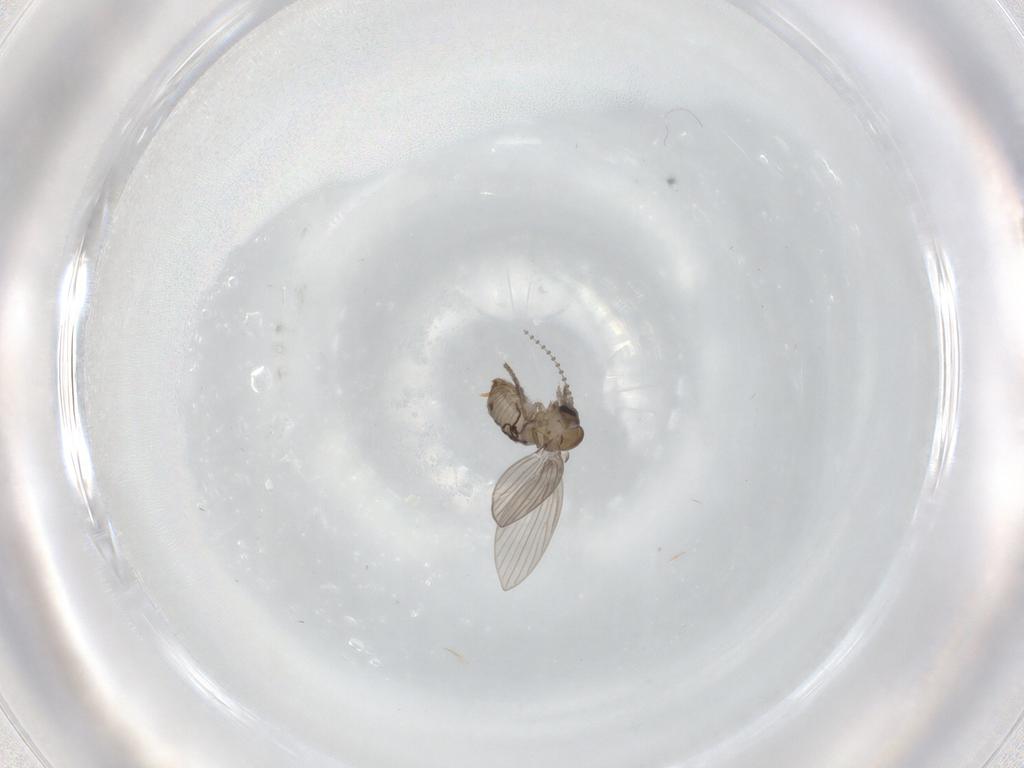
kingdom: Animalia
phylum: Arthropoda
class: Insecta
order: Diptera
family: Psychodidae
